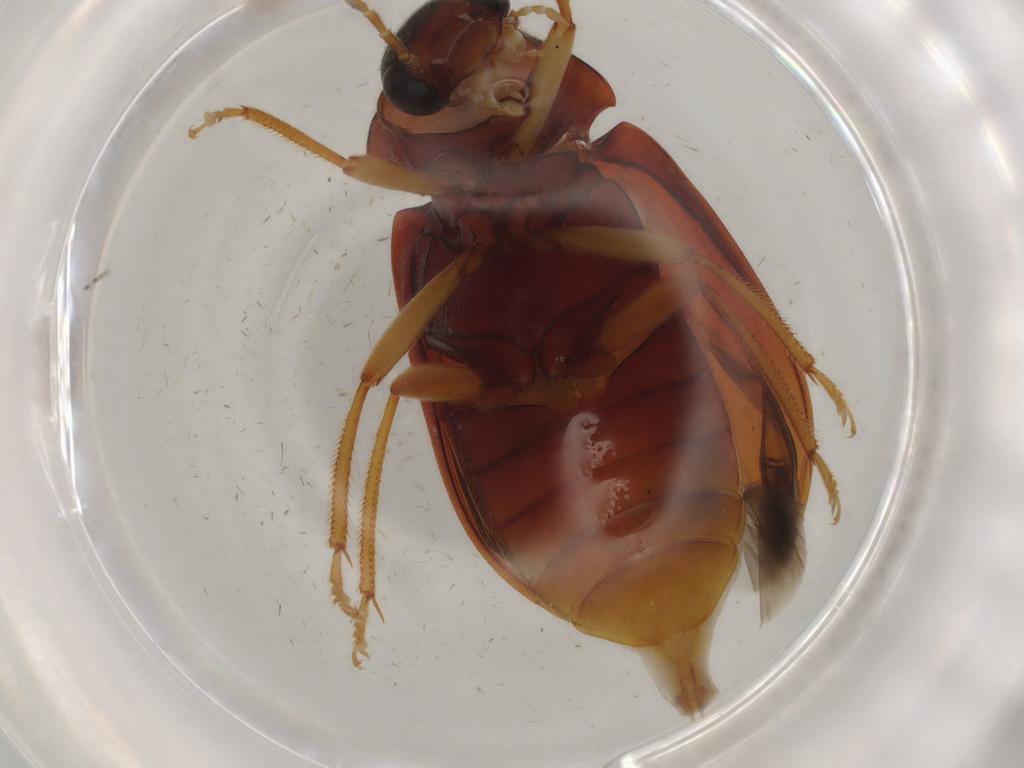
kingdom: Animalia
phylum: Arthropoda
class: Insecta
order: Coleoptera
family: Ptilodactylidae
